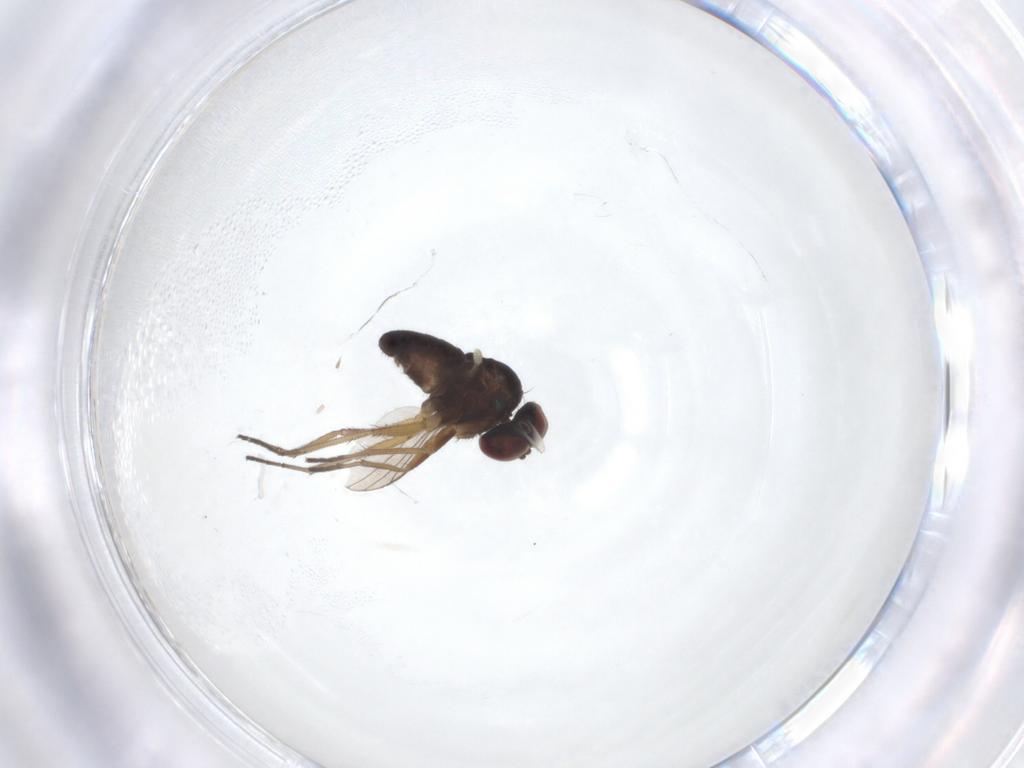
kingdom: Animalia
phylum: Arthropoda
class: Insecta
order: Diptera
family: Dolichopodidae
